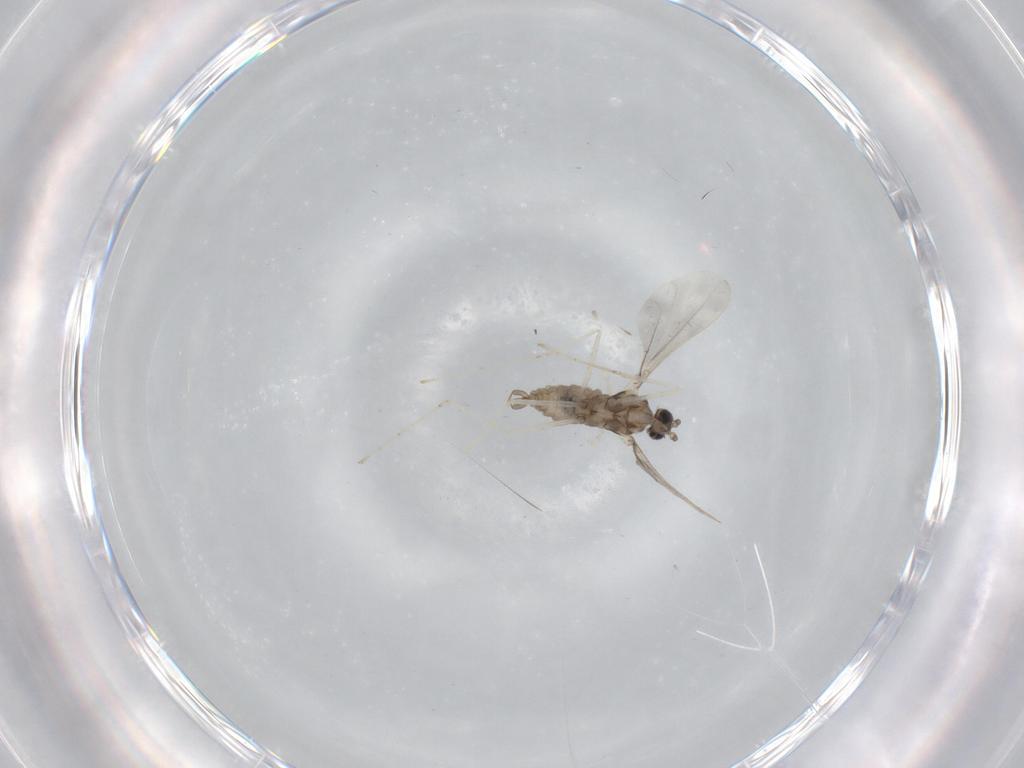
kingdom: Animalia
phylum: Arthropoda
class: Insecta
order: Diptera
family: Cecidomyiidae
